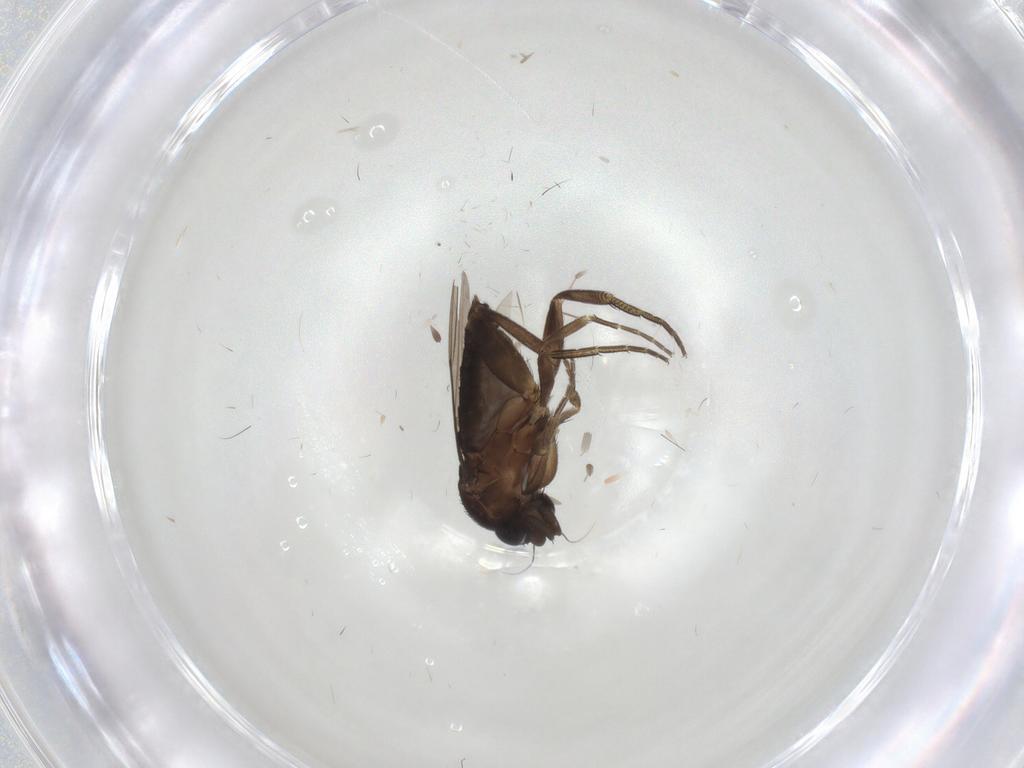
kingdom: Animalia
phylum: Arthropoda
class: Insecta
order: Diptera
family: Phoridae
